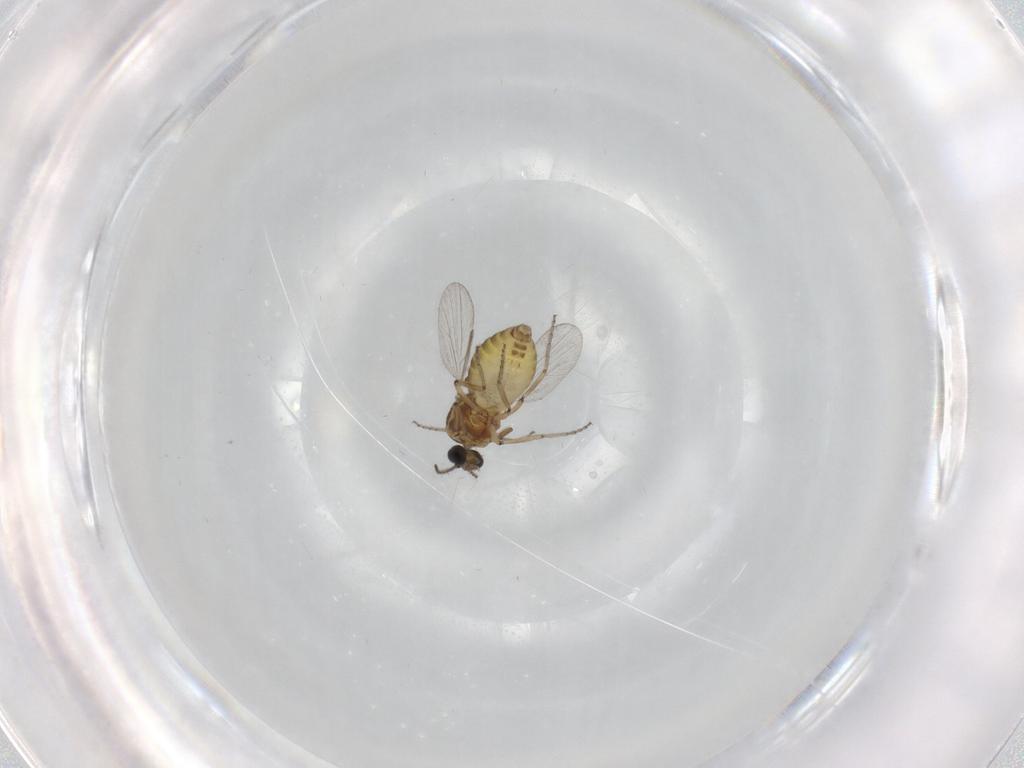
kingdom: Animalia
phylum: Arthropoda
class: Insecta
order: Diptera
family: Ceratopogonidae
